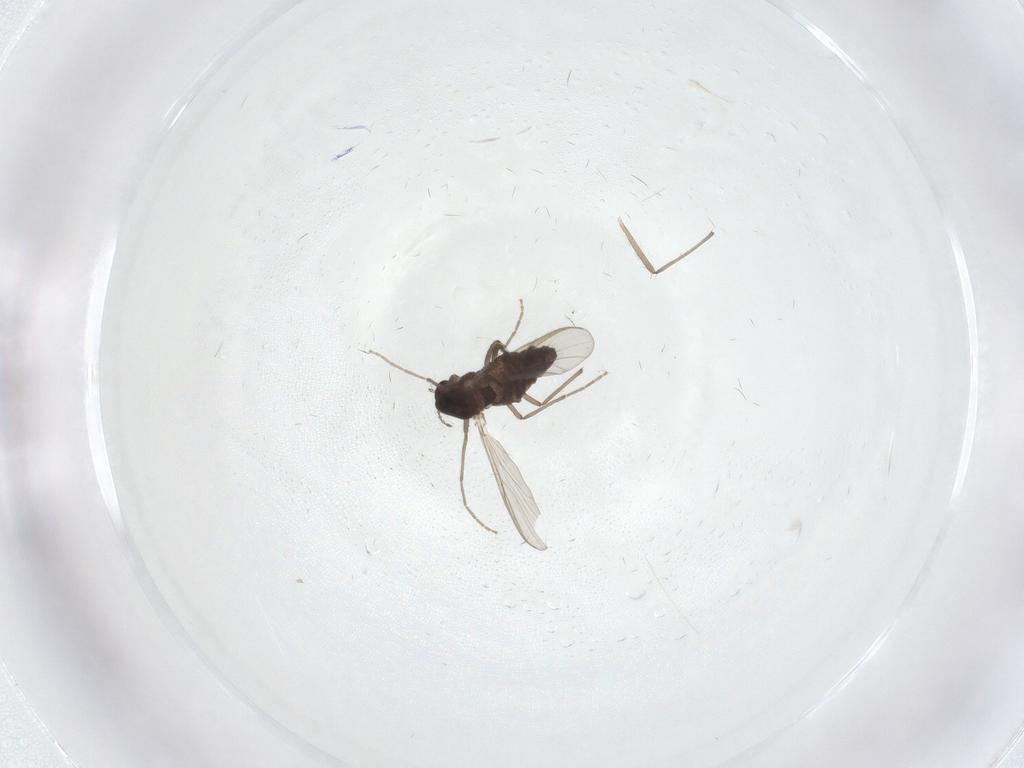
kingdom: Animalia
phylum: Arthropoda
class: Insecta
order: Diptera
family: Chironomidae
